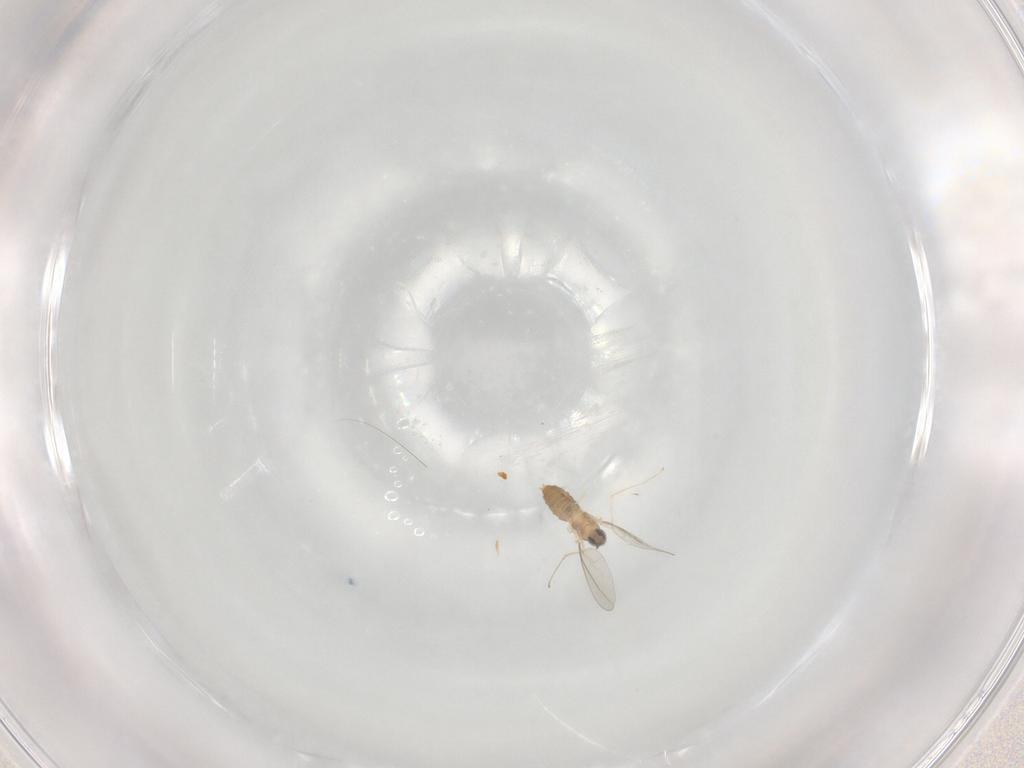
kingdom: Animalia
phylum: Arthropoda
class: Insecta
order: Diptera
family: Cecidomyiidae
